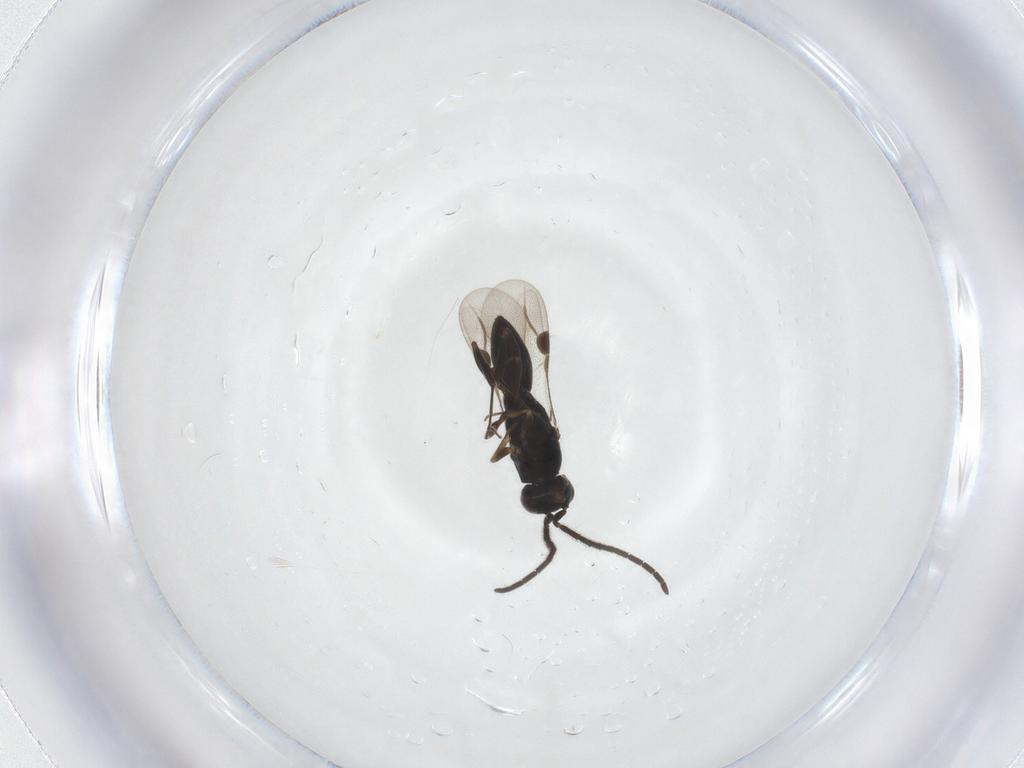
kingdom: Animalia
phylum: Arthropoda
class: Insecta
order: Hymenoptera
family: Megaspilidae
